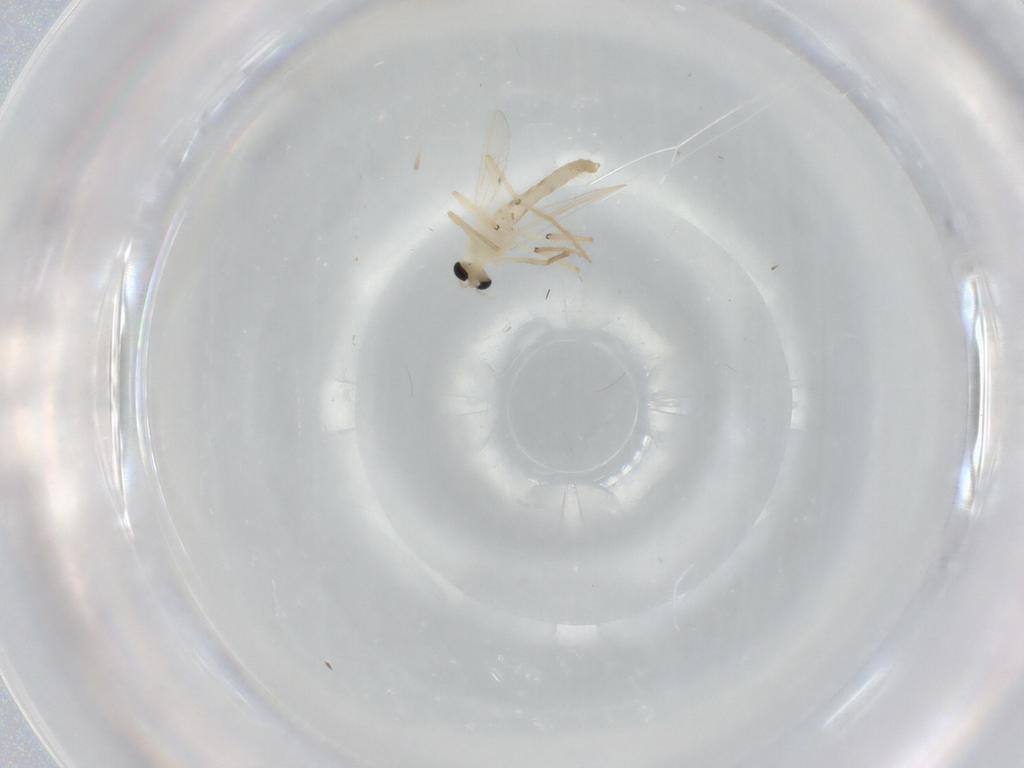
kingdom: Animalia
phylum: Arthropoda
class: Insecta
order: Diptera
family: Chironomidae
